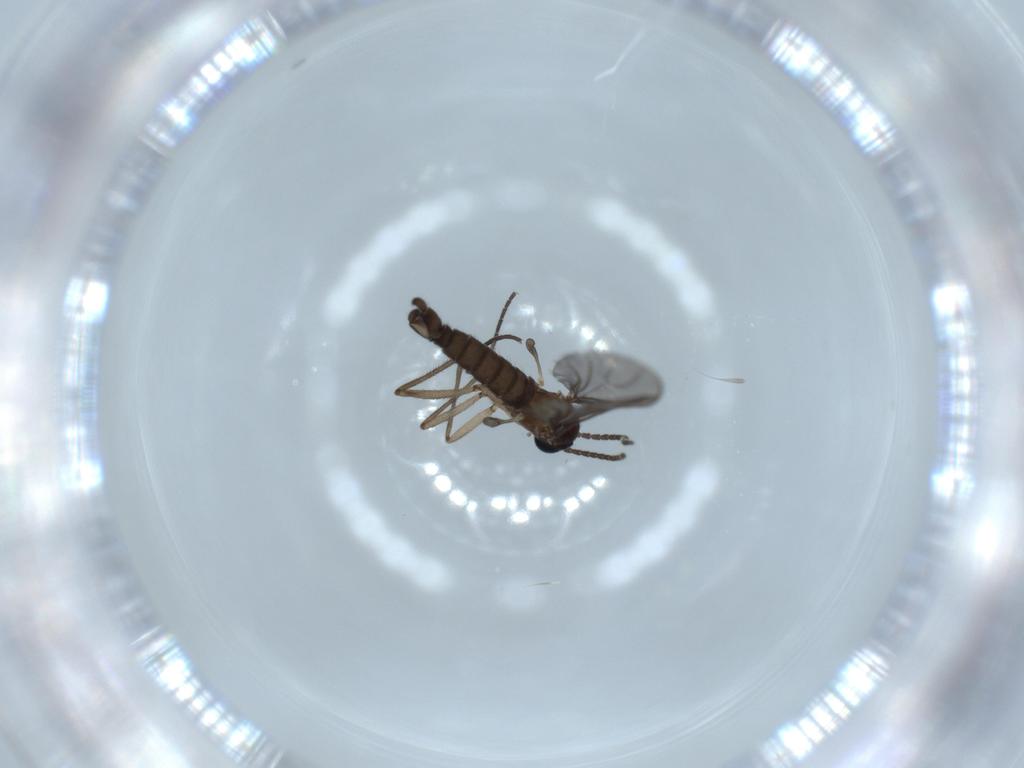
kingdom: Animalia
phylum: Arthropoda
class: Insecta
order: Diptera
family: Sciaridae
